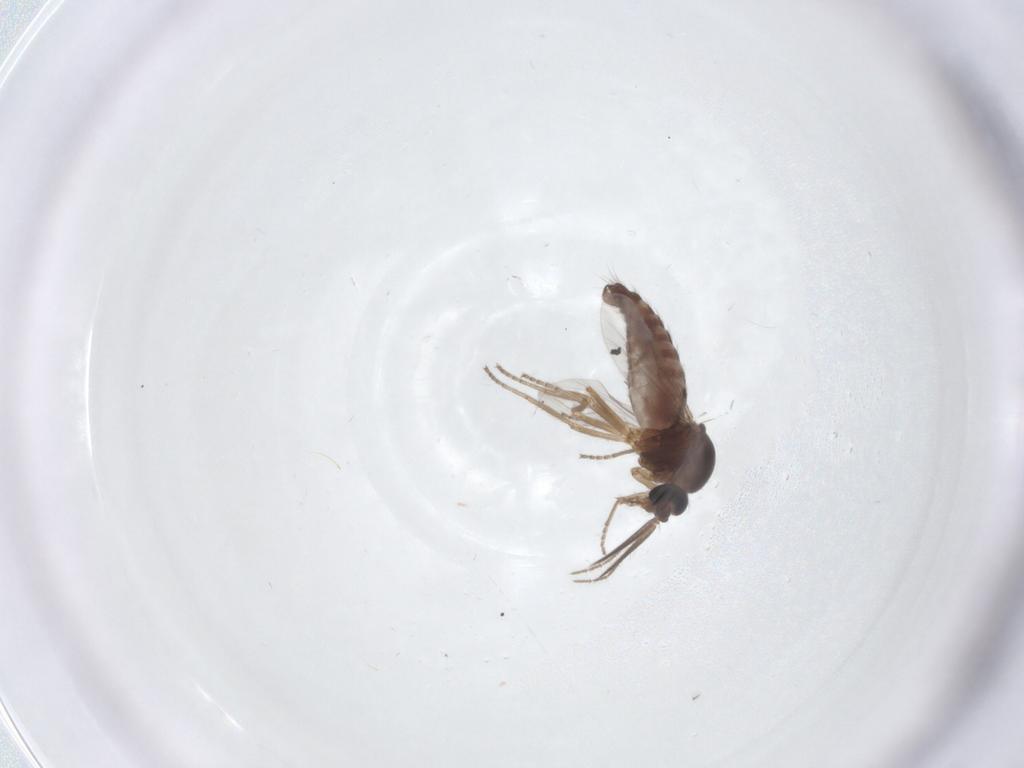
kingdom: Animalia
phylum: Arthropoda
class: Insecta
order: Diptera
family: Ceratopogonidae
